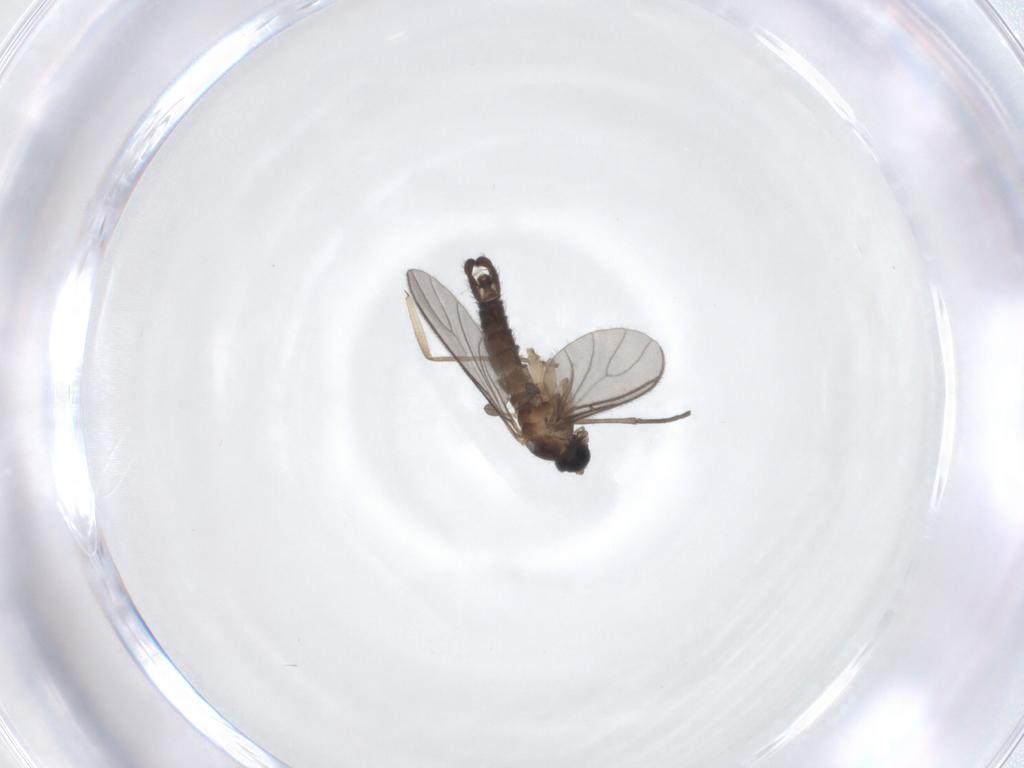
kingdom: Animalia
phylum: Arthropoda
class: Insecta
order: Diptera
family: Sciaridae
